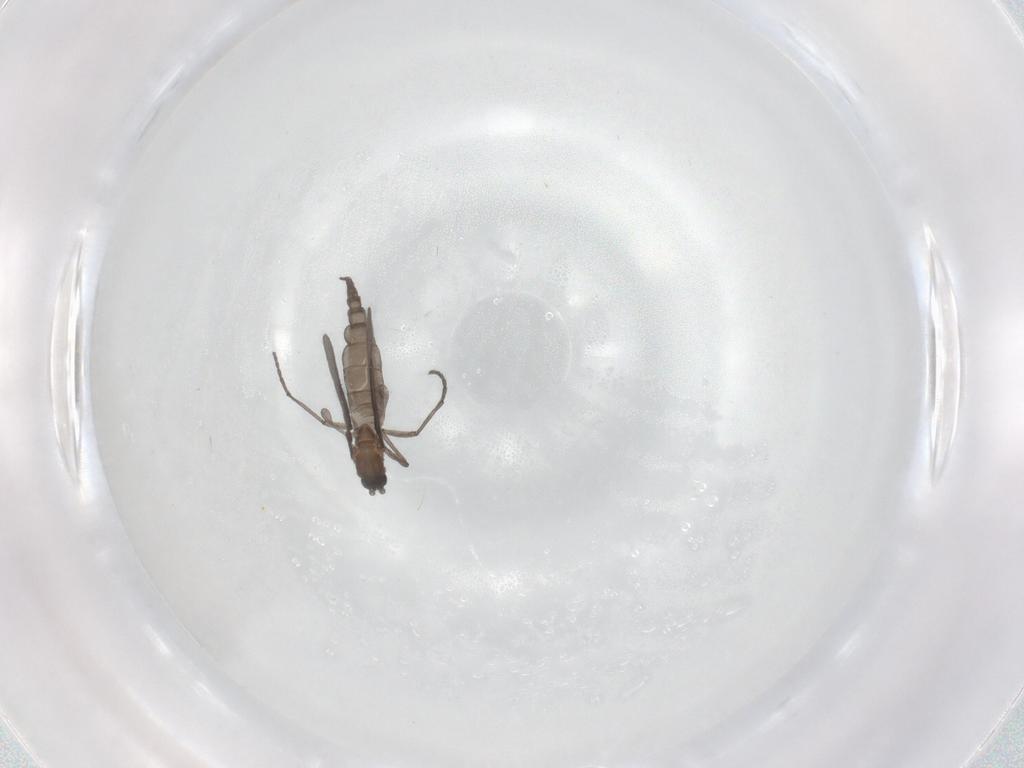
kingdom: Animalia
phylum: Arthropoda
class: Insecta
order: Diptera
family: Sciaridae
